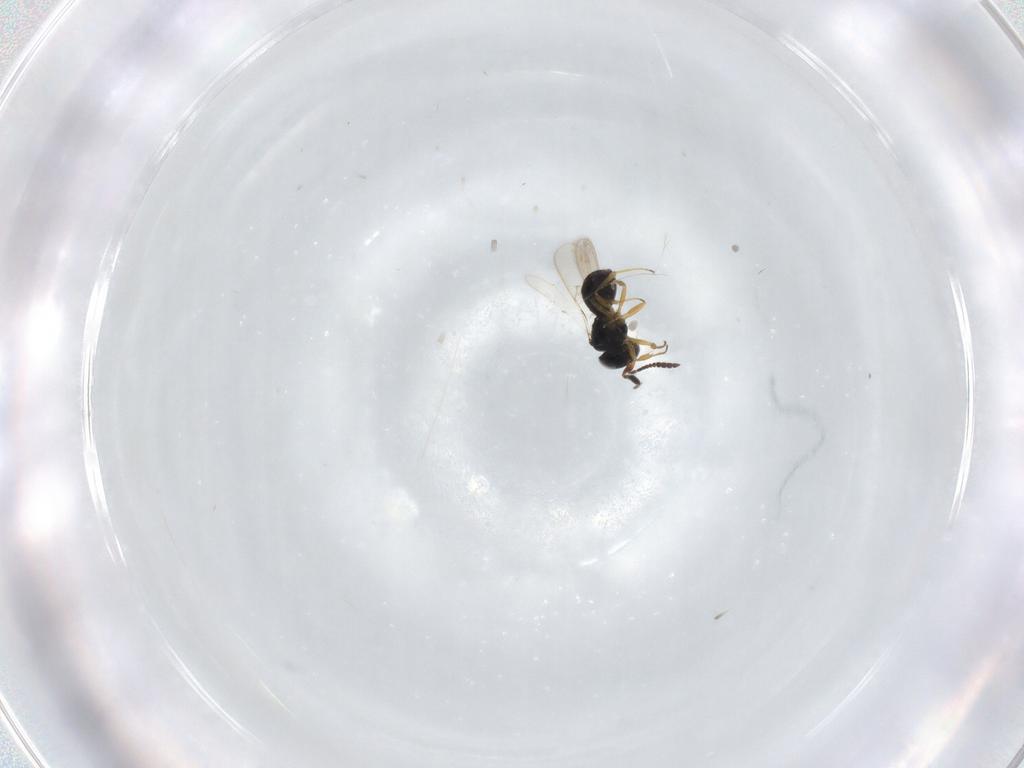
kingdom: Animalia
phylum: Arthropoda
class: Insecta
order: Hymenoptera
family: Scelionidae
